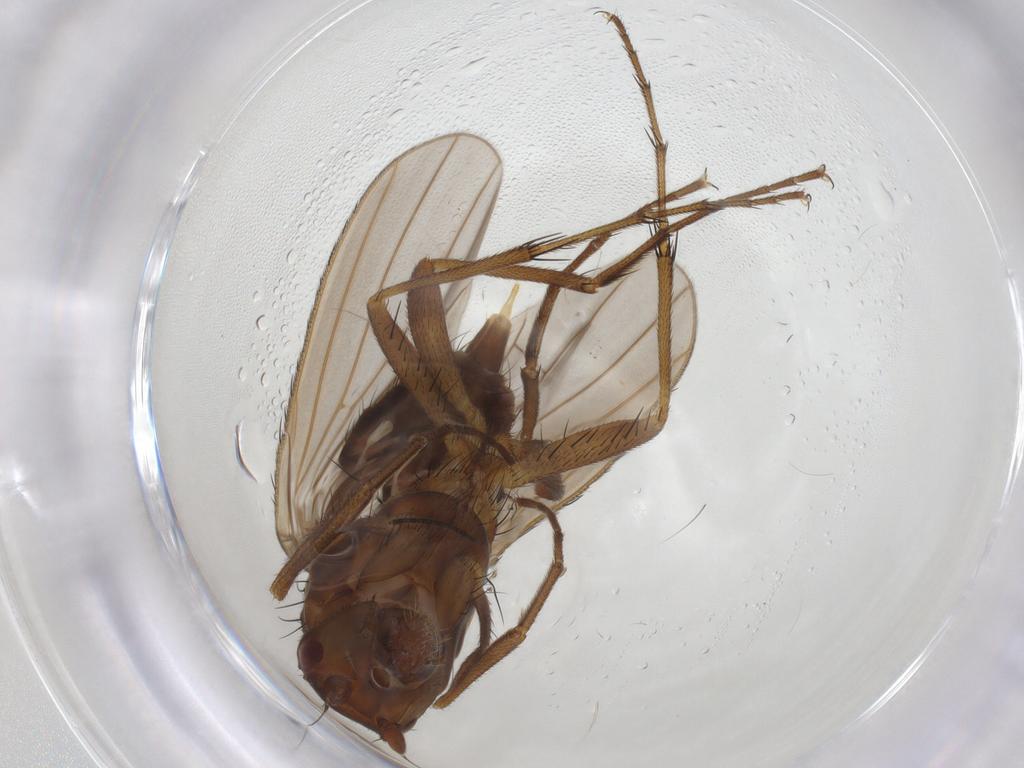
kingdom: Animalia
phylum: Arthropoda
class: Insecta
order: Diptera
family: Heleomyzidae
